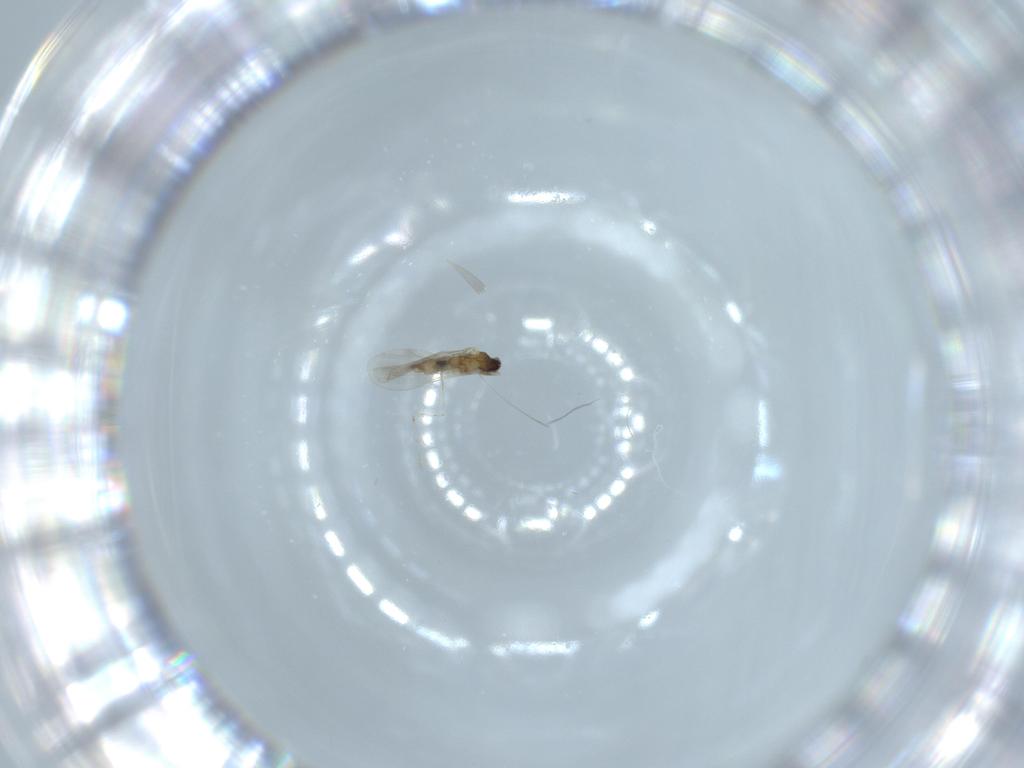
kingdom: Animalia
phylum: Arthropoda
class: Insecta
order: Diptera
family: Cecidomyiidae
